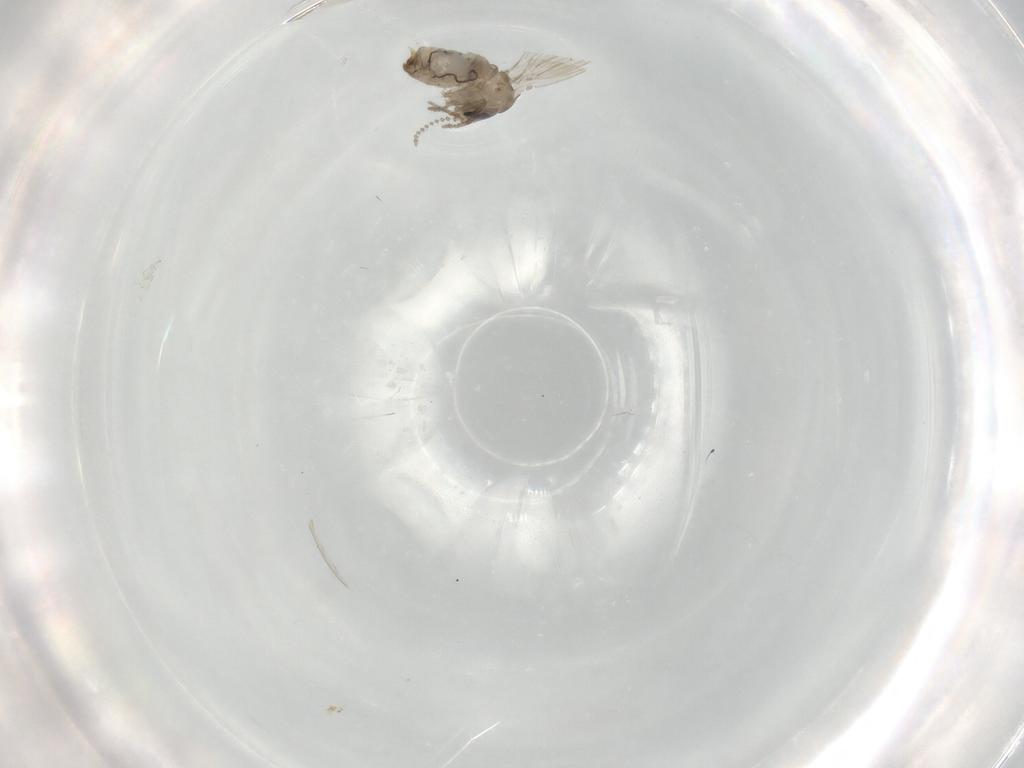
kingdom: Animalia
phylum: Arthropoda
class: Insecta
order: Diptera
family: Psychodidae
